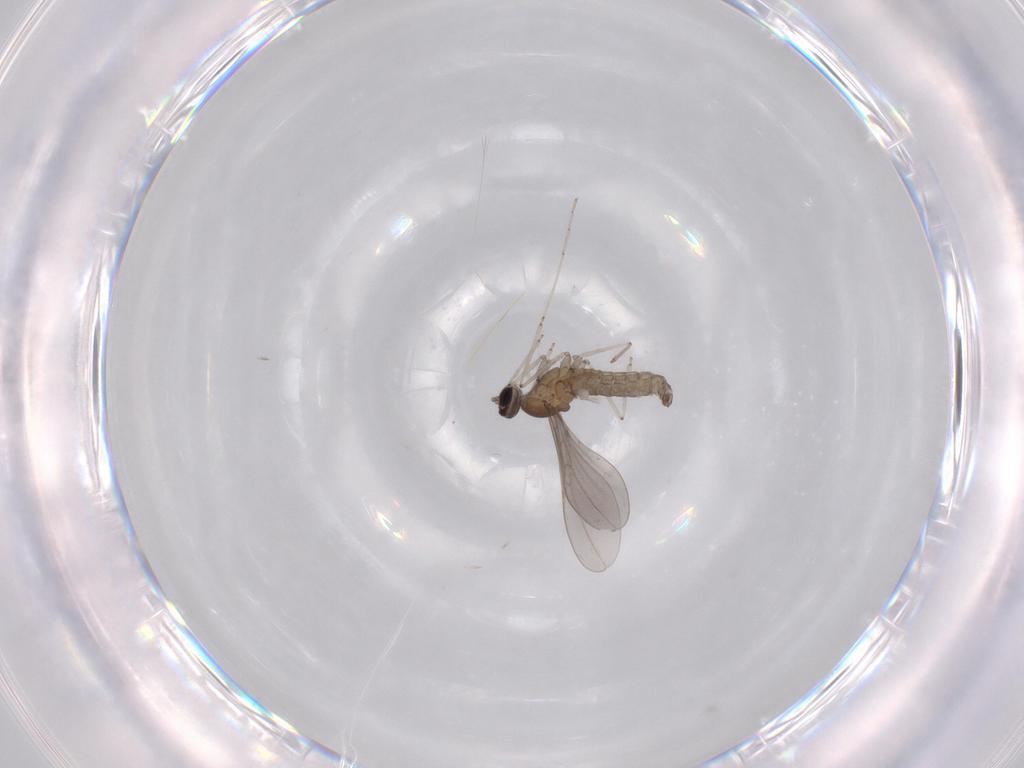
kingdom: Animalia
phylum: Arthropoda
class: Insecta
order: Diptera
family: Cecidomyiidae
